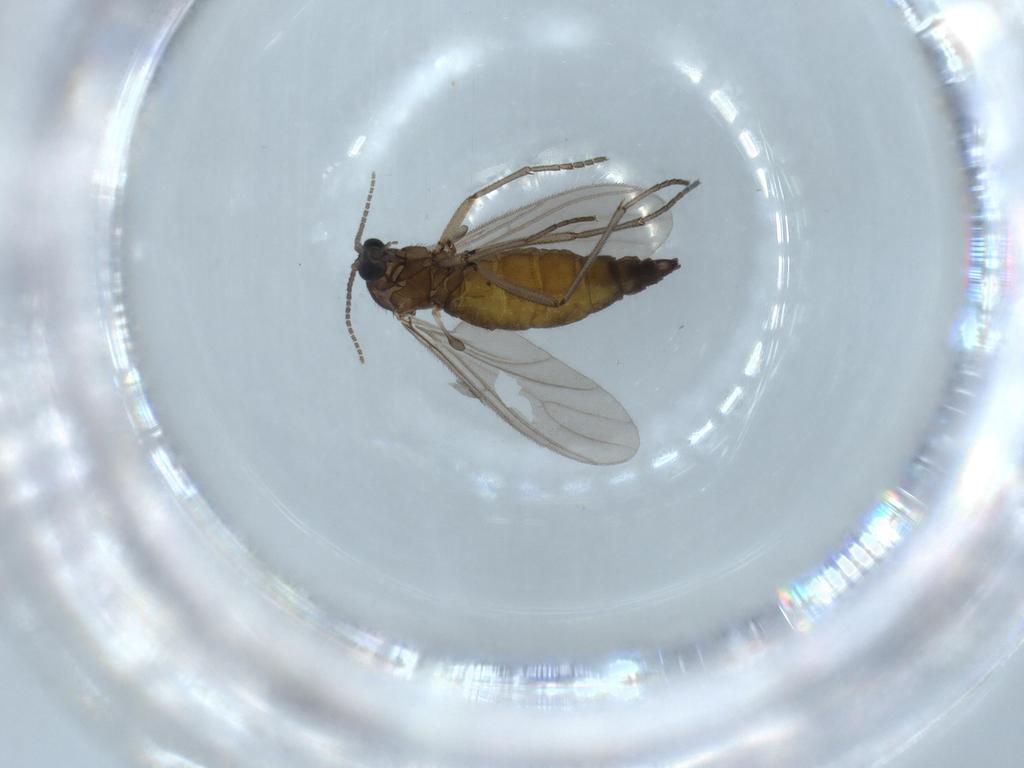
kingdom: Animalia
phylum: Arthropoda
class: Insecta
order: Diptera
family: Sciaridae
